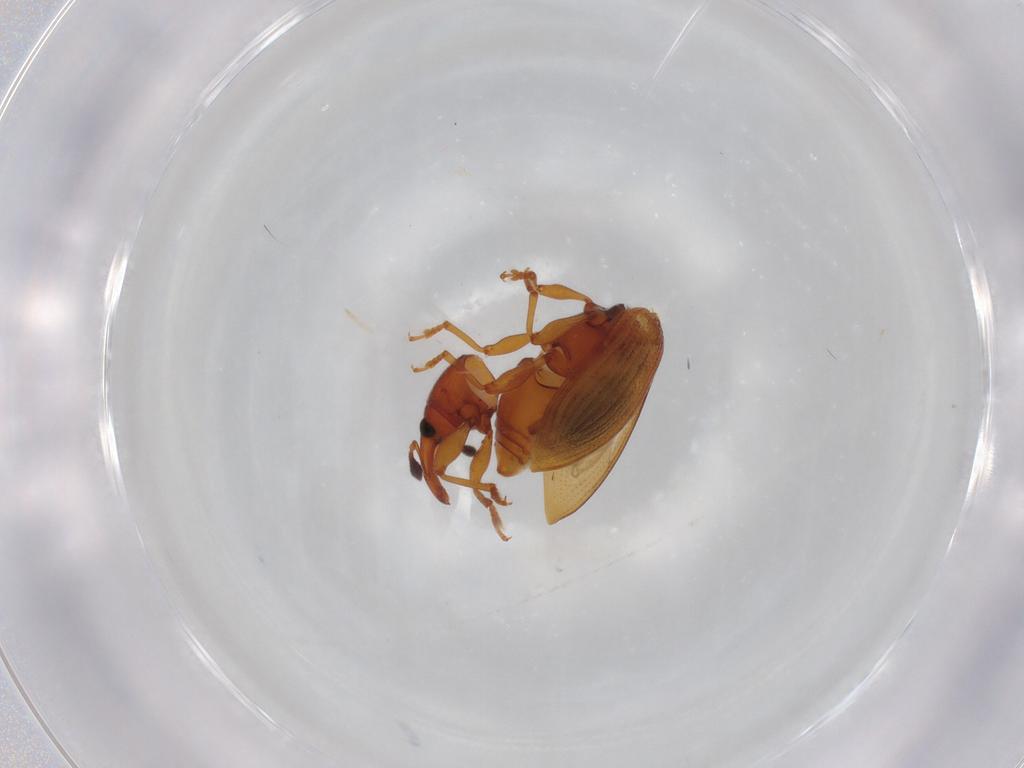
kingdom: Animalia
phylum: Arthropoda
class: Insecta
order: Coleoptera
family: Curculionidae
